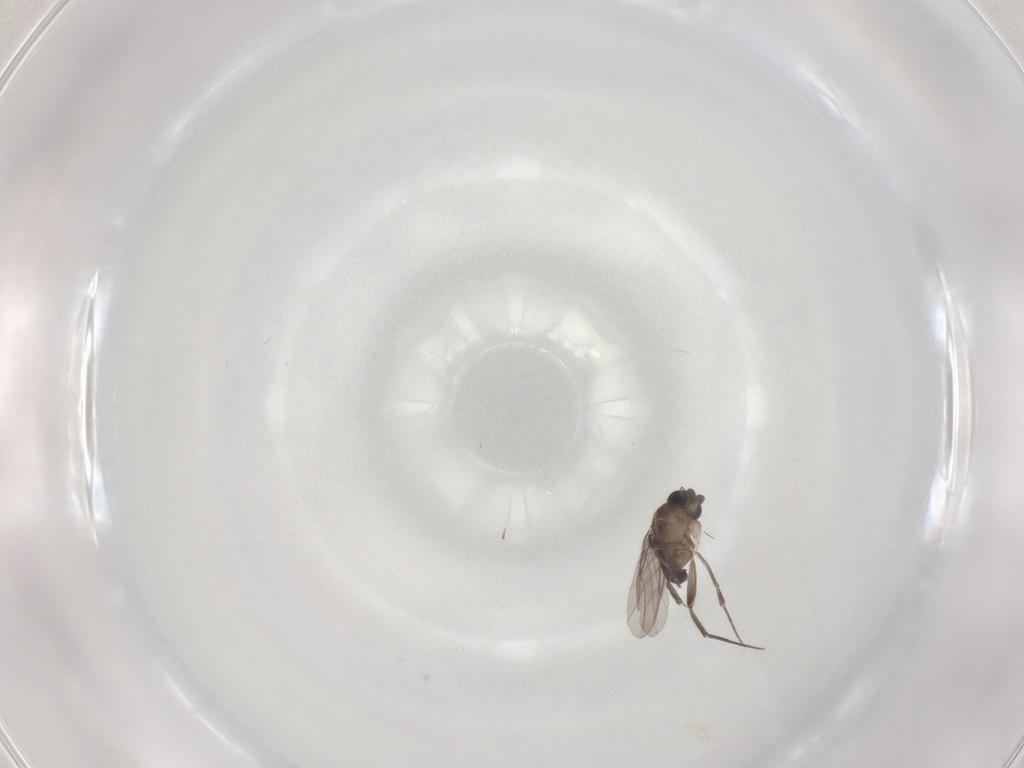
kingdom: Animalia
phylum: Arthropoda
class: Insecta
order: Diptera
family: Phoridae
